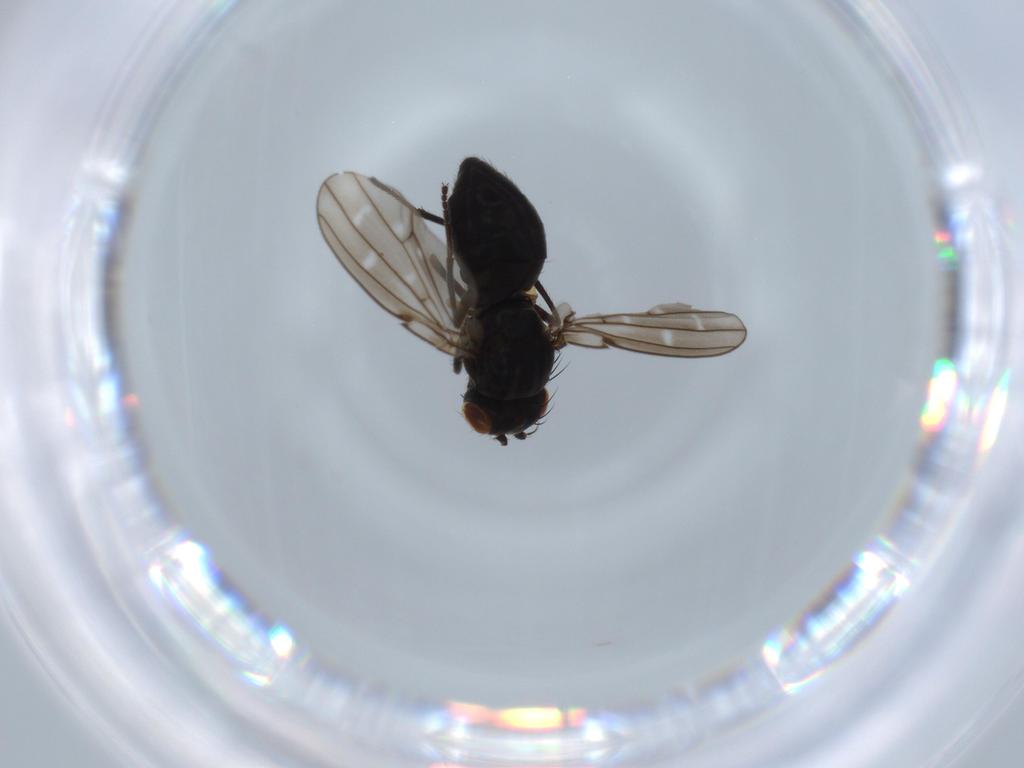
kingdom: Animalia
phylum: Arthropoda
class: Insecta
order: Diptera
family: Ephydridae
